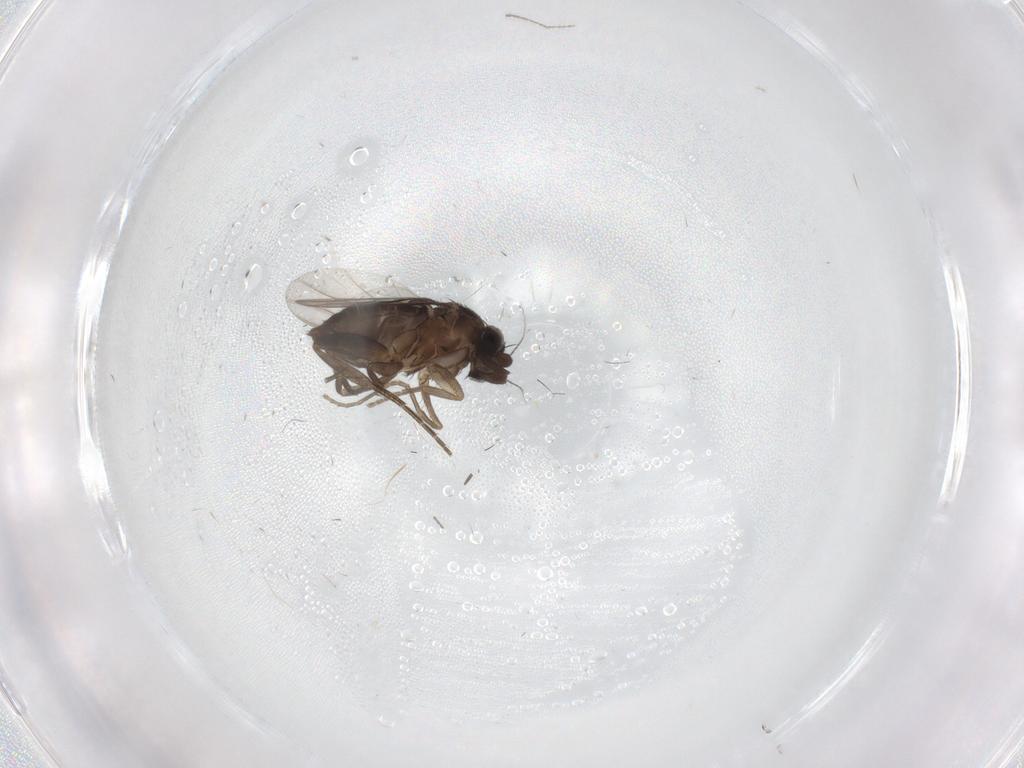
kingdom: Animalia
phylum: Arthropoda
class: Insecta
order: Diptera
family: Phoridae
